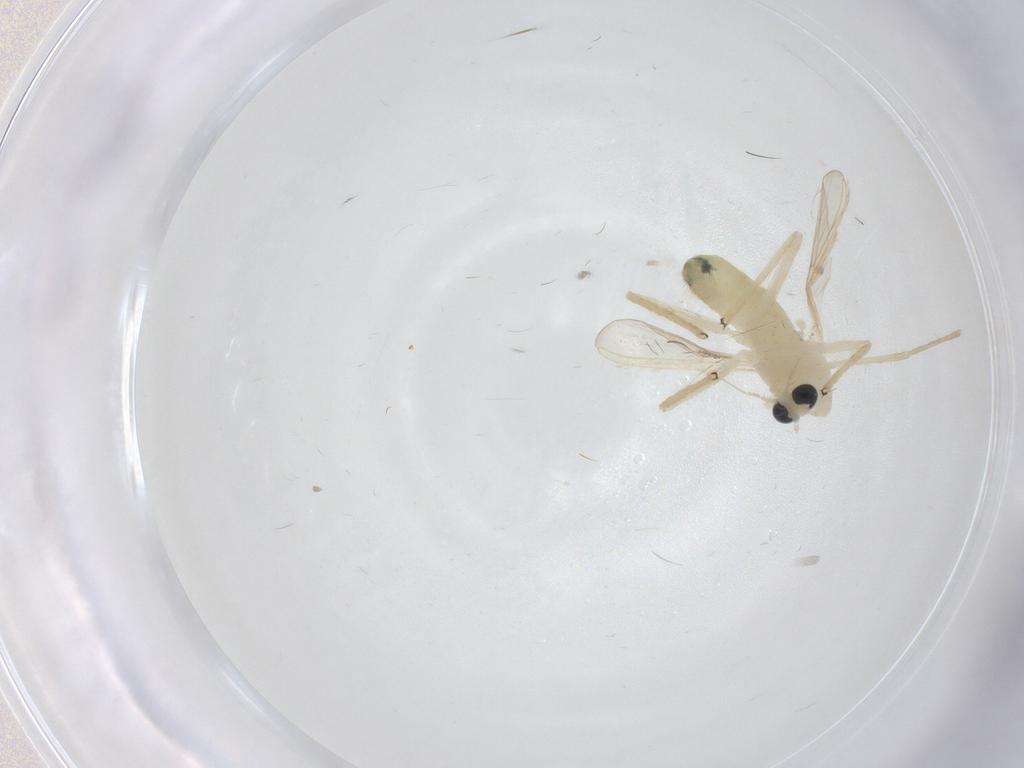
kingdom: Animalia
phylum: Arthropoda
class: Insecta
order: Diptera
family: Chironomidae
